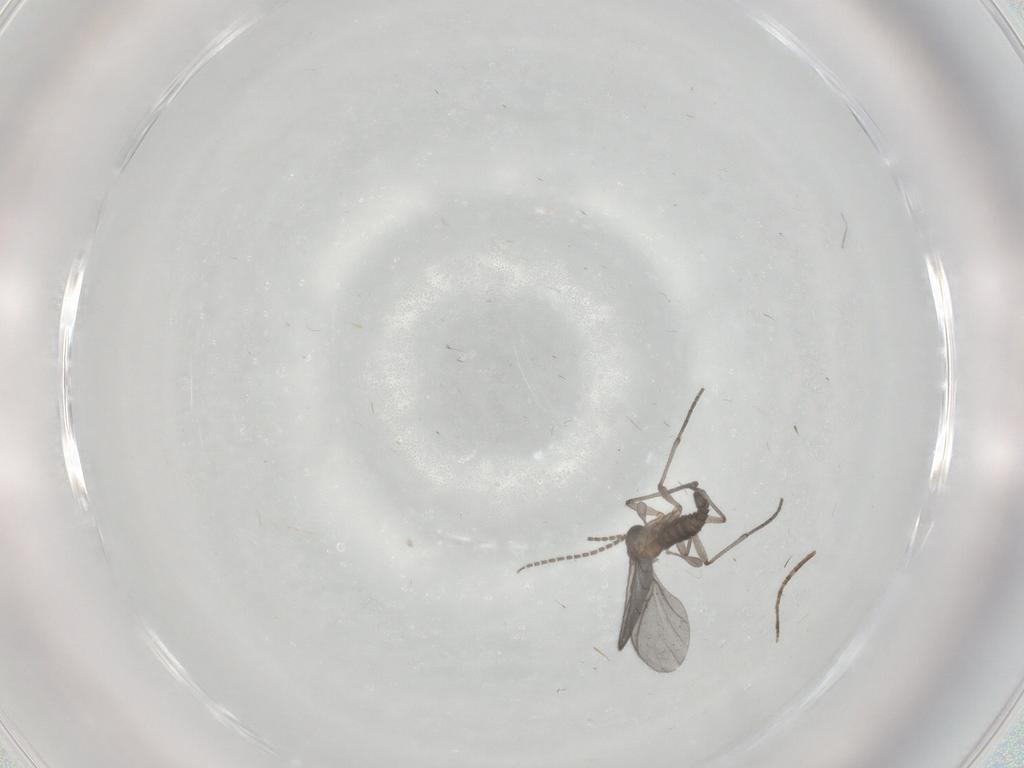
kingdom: Animalia
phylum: Arthropoda
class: Insecta
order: Diptera
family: Sciaridae
